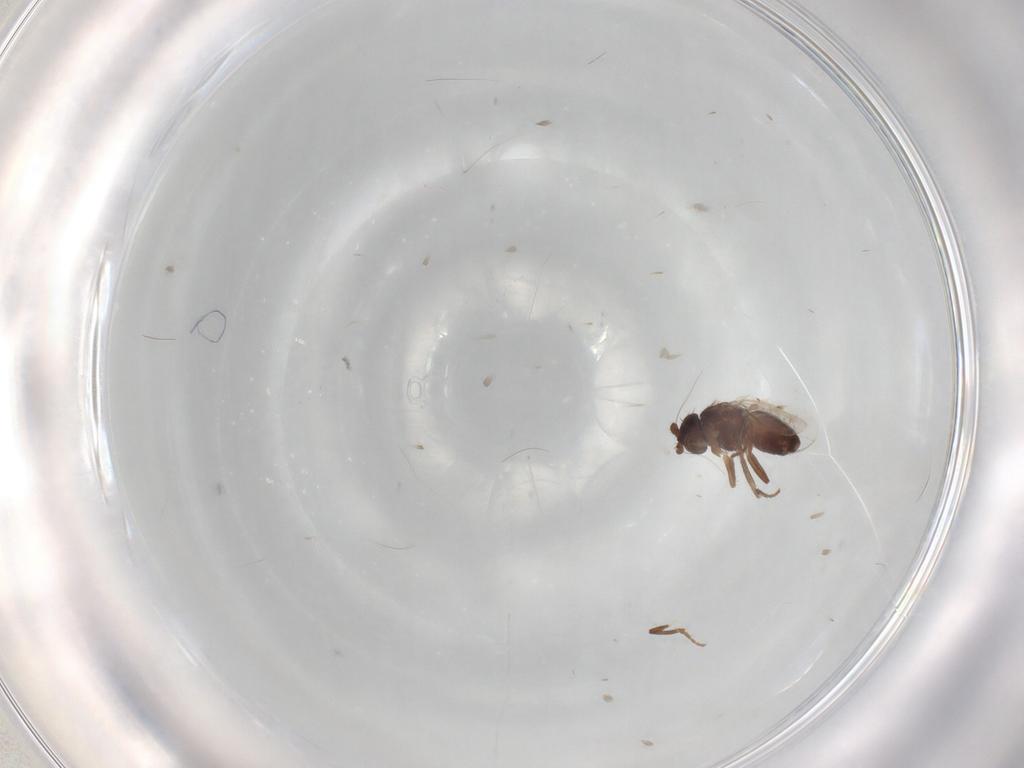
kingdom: Animalia
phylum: Arthropoda
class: Insecta
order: Diptera
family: Sphaeroceridae
